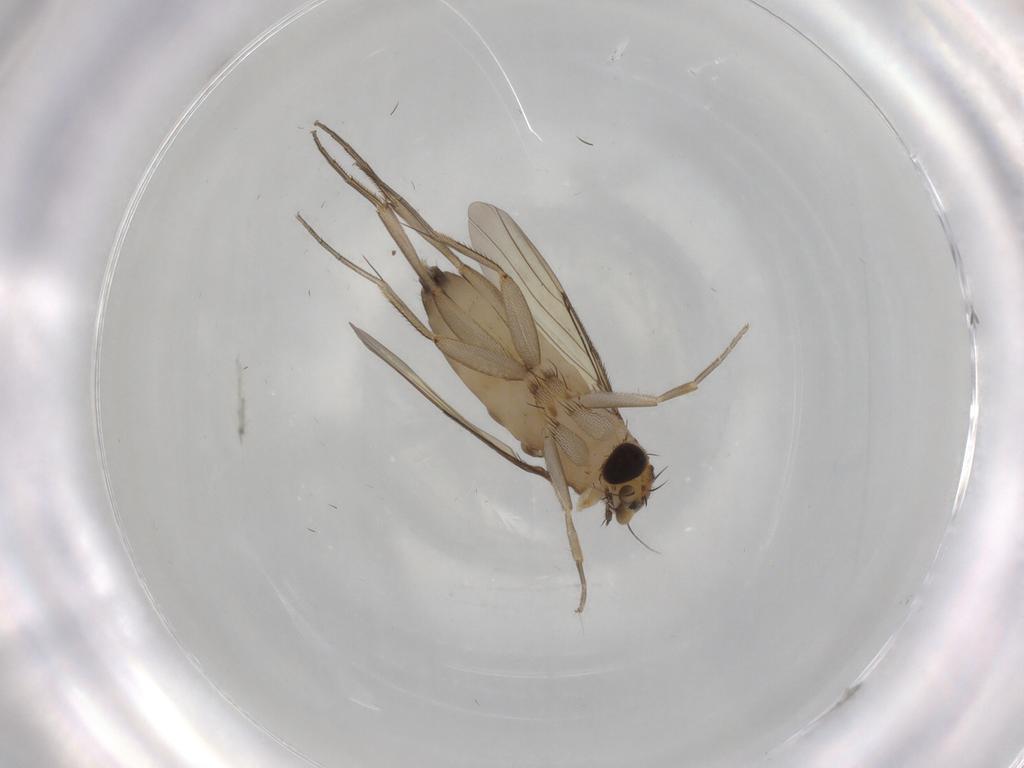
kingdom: Animalia
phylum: Arthropoda
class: Insecta
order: Diptera
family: Phoridae
